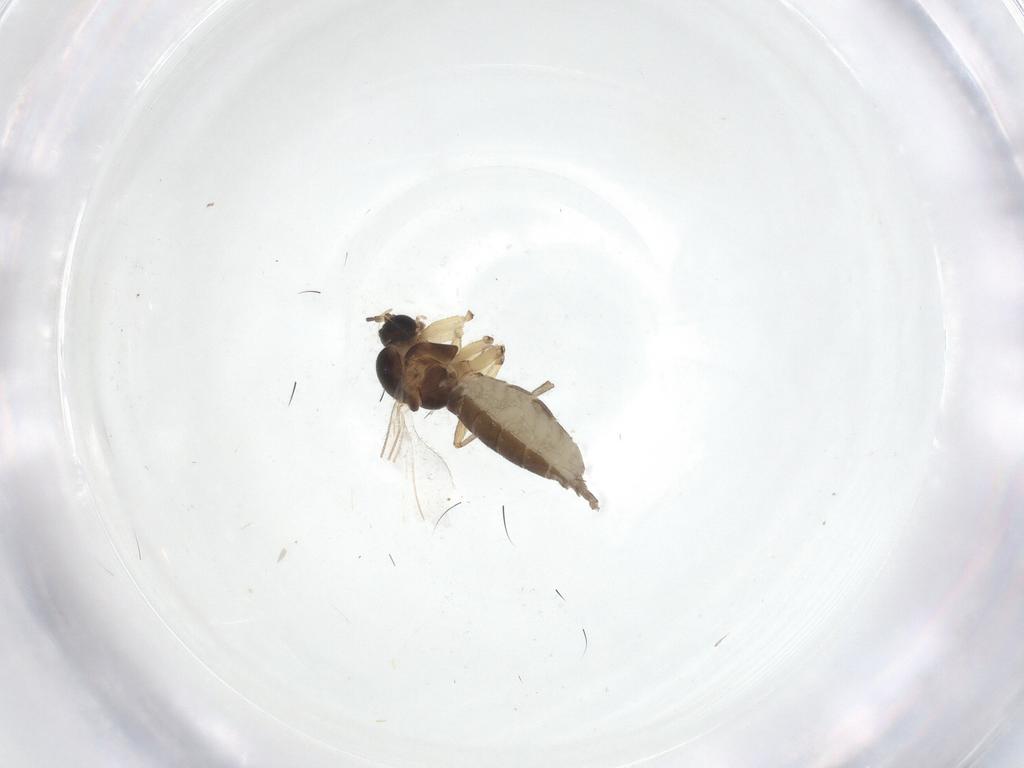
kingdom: Animalia
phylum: Arthropoda
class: Insecta
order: Diptera
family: Sciaridae
